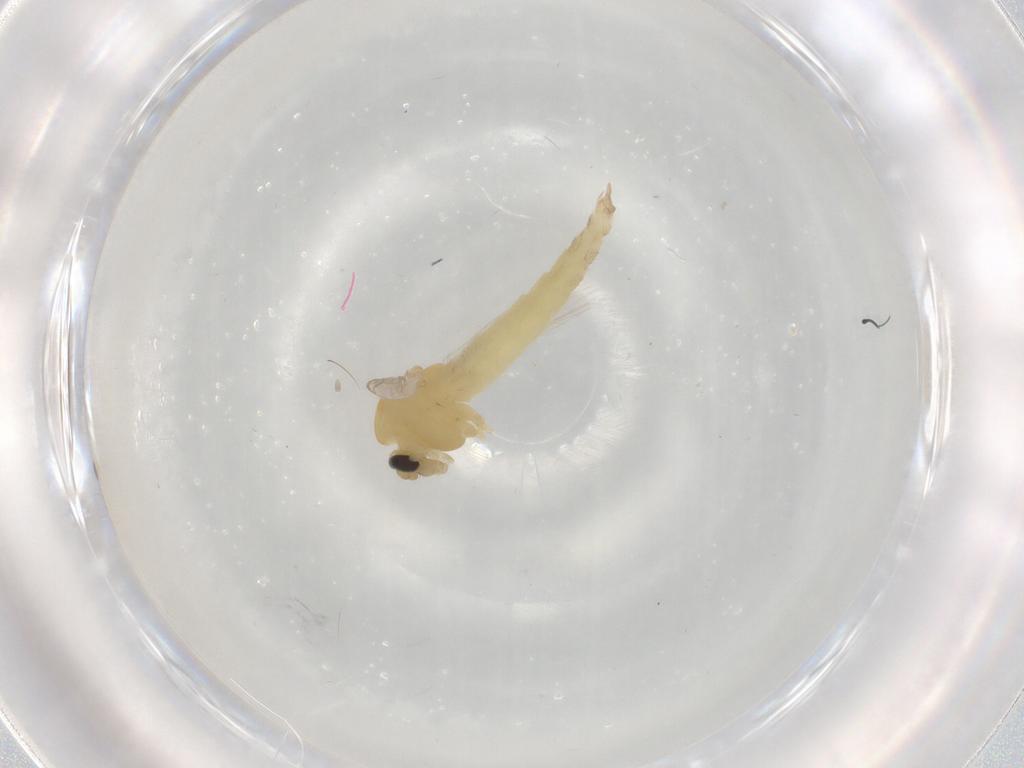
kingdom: Animalia
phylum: Arthropoda
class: Insecta
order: Diptera
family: Chironomidae
